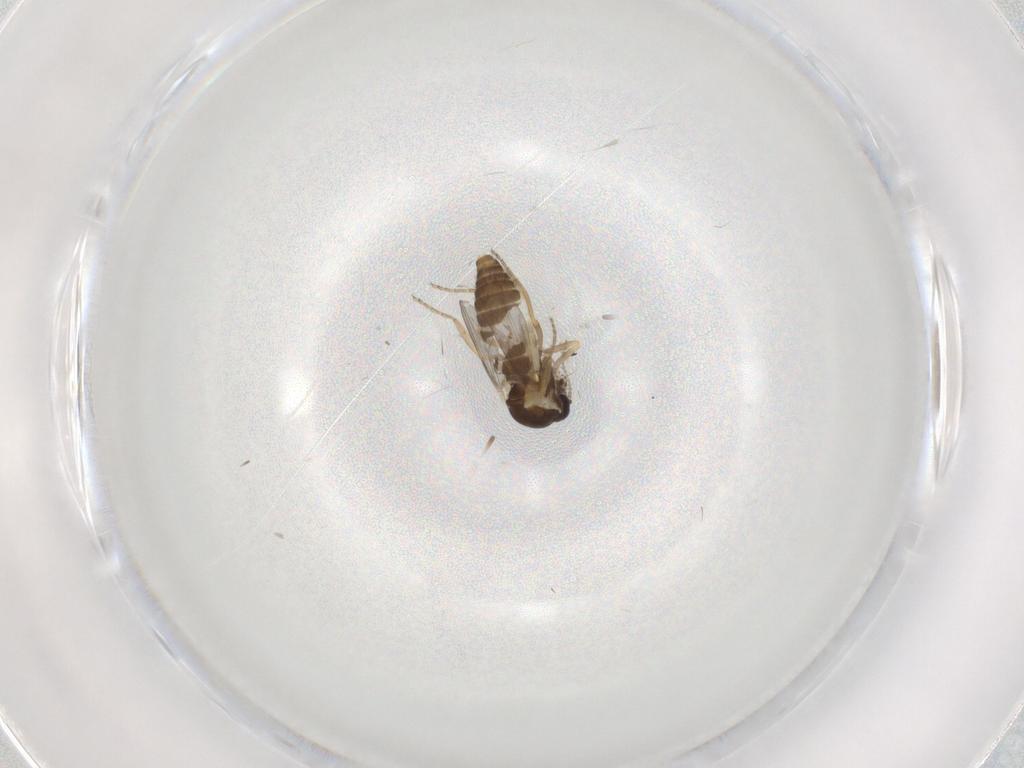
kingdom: Animalia
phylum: Arthropoda
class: Insecta
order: Diptera
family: Ceratopogonidae
